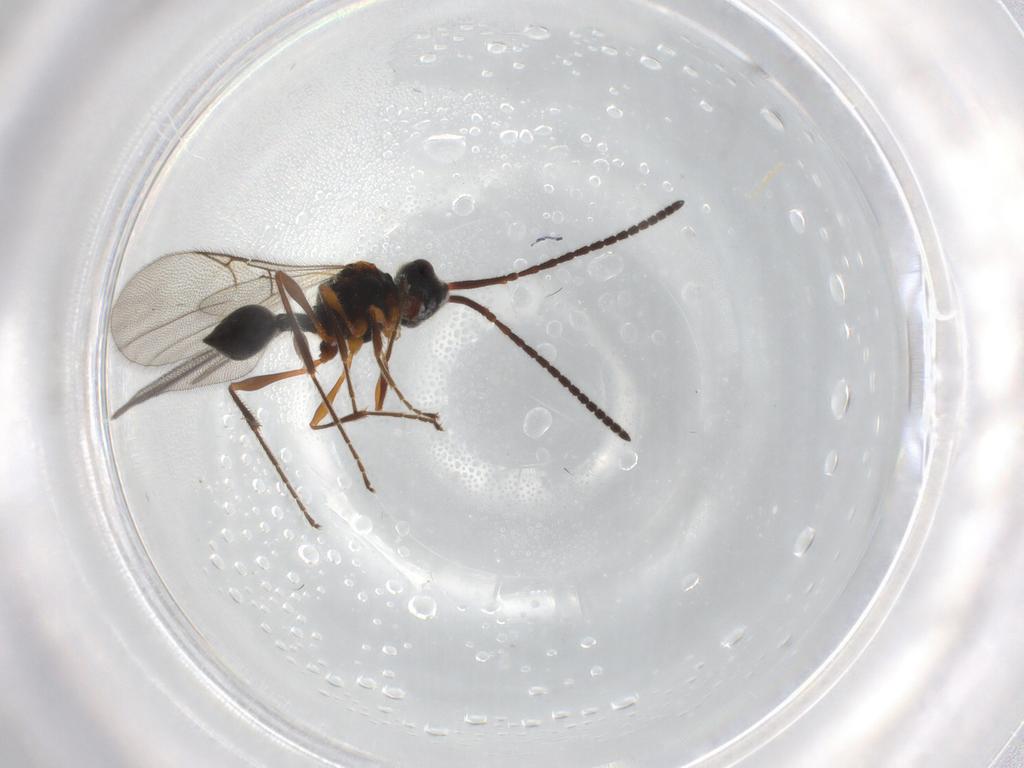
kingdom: Animalia
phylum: Arthropoda
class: Insecta
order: Hymenoptera
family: Diapriidae
